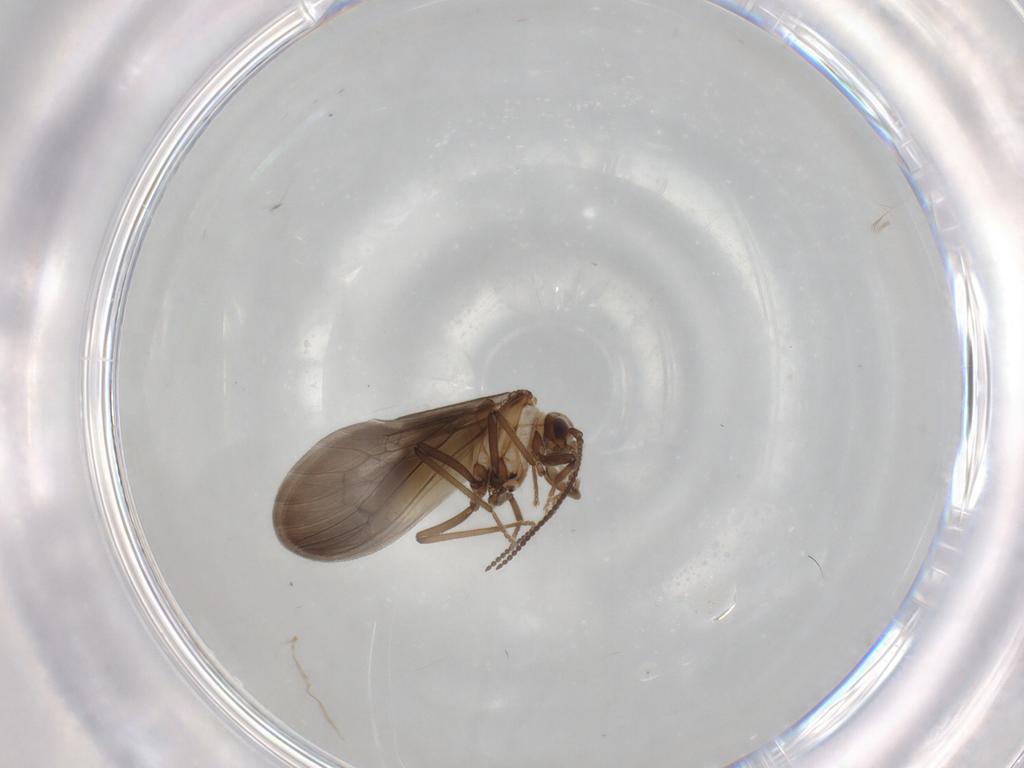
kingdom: Animalia
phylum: Arthropoda
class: Insecta
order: Neuroptera
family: Coniopterygidae
